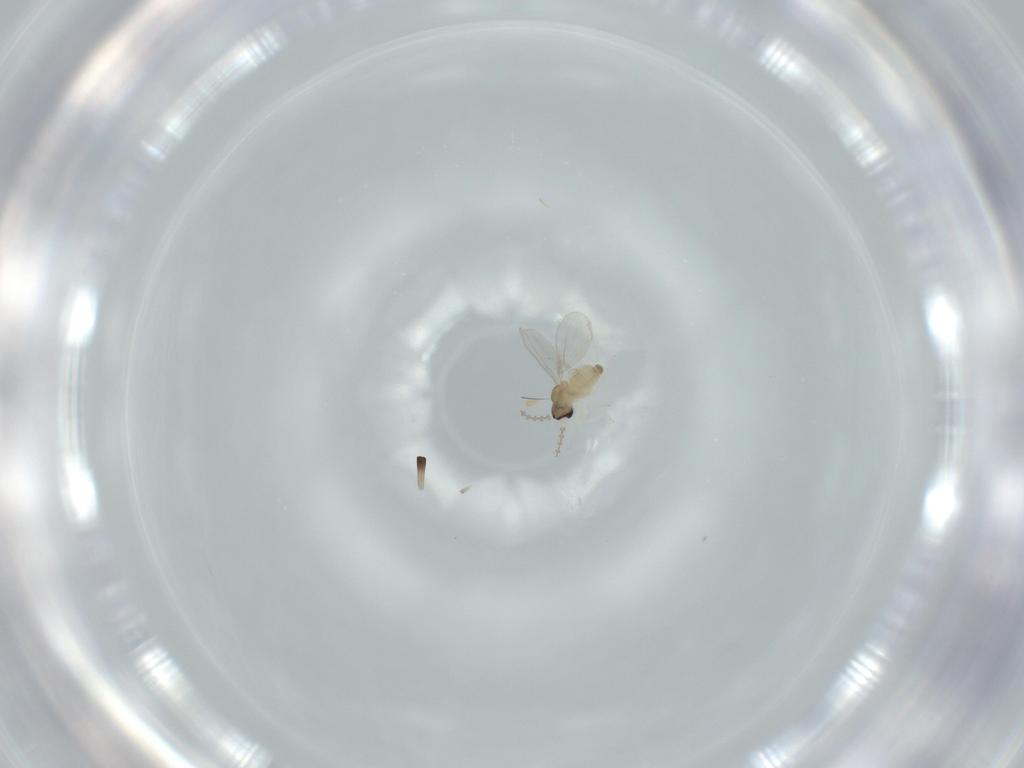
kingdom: Animalia
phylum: Arthropoda
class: Insecta
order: Diptera
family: Cecidomyiidae
